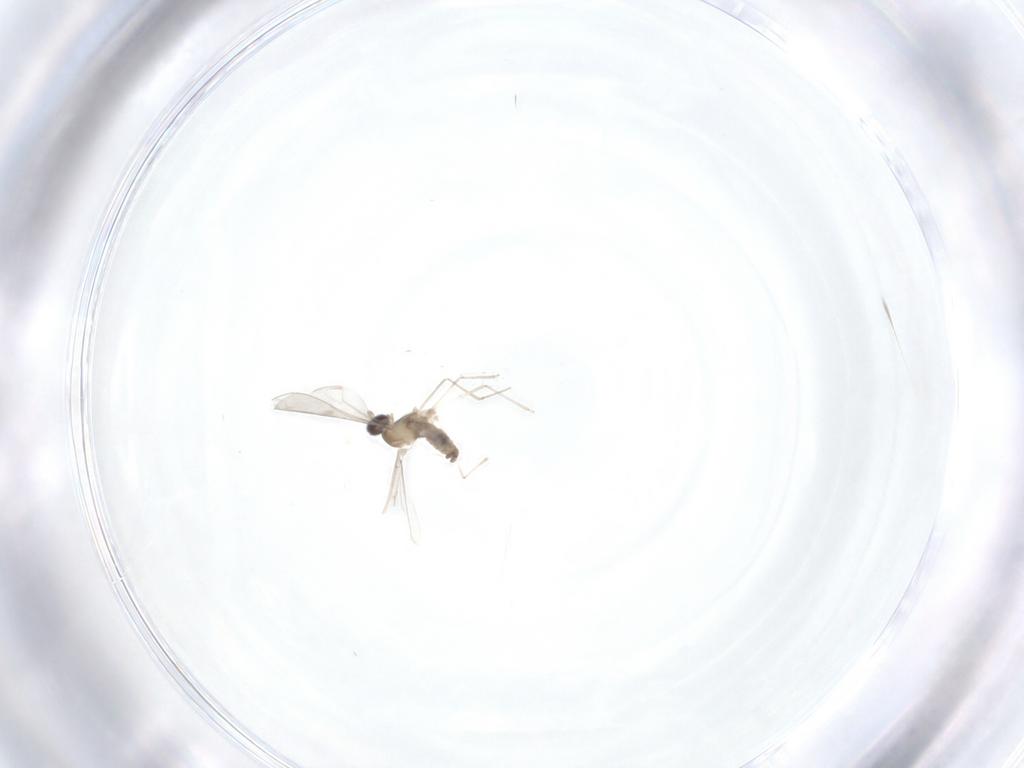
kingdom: Animalia
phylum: Arthropoda
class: Insecta
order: Diptera
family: Cecidomyiidae
